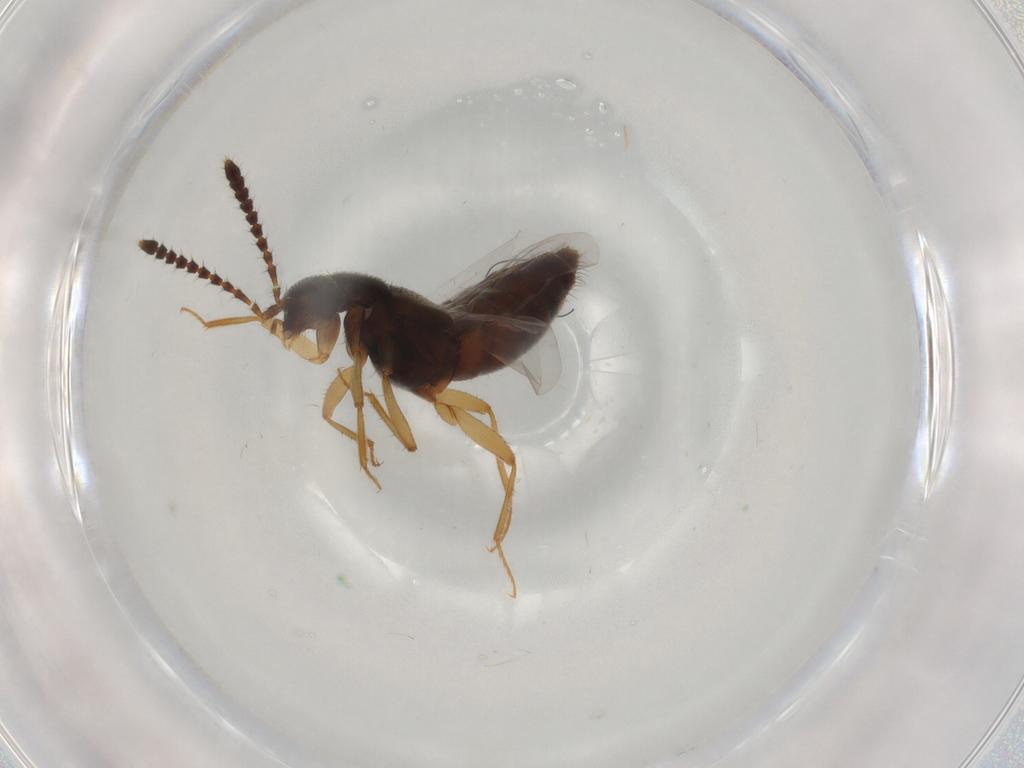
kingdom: Animalia
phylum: Arthropoda
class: Insecta
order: Coleoptera
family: Staphylinidae
